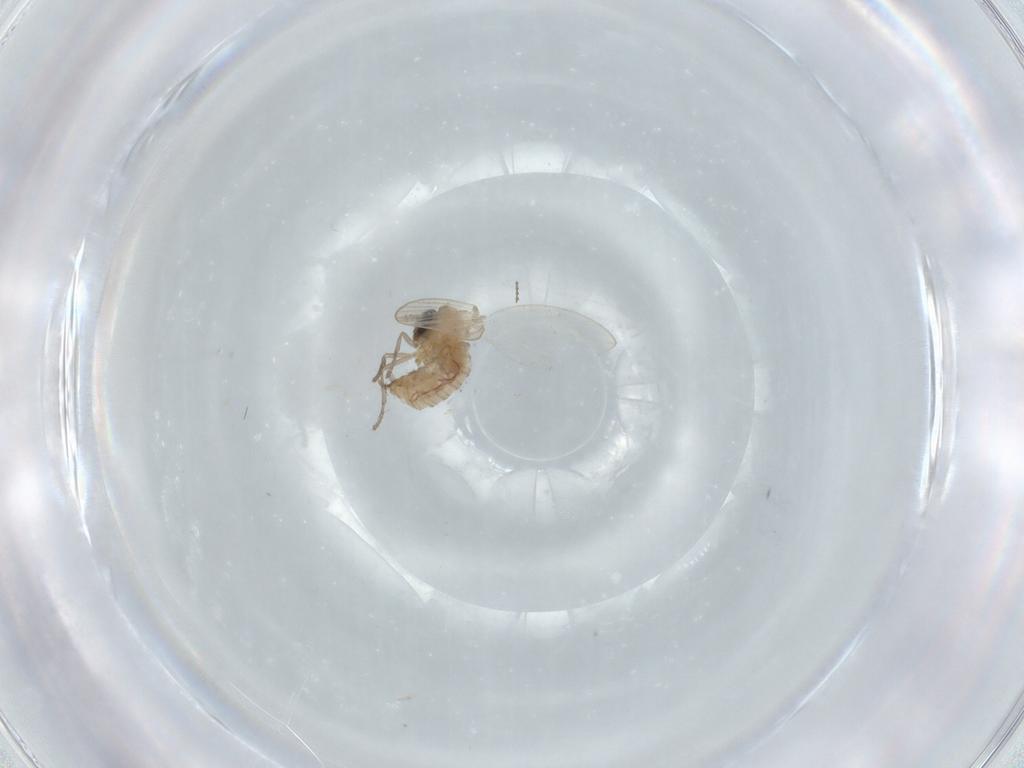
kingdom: Animalia
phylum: Arthropoda
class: Insecta
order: Diptera
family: Psychodidae
